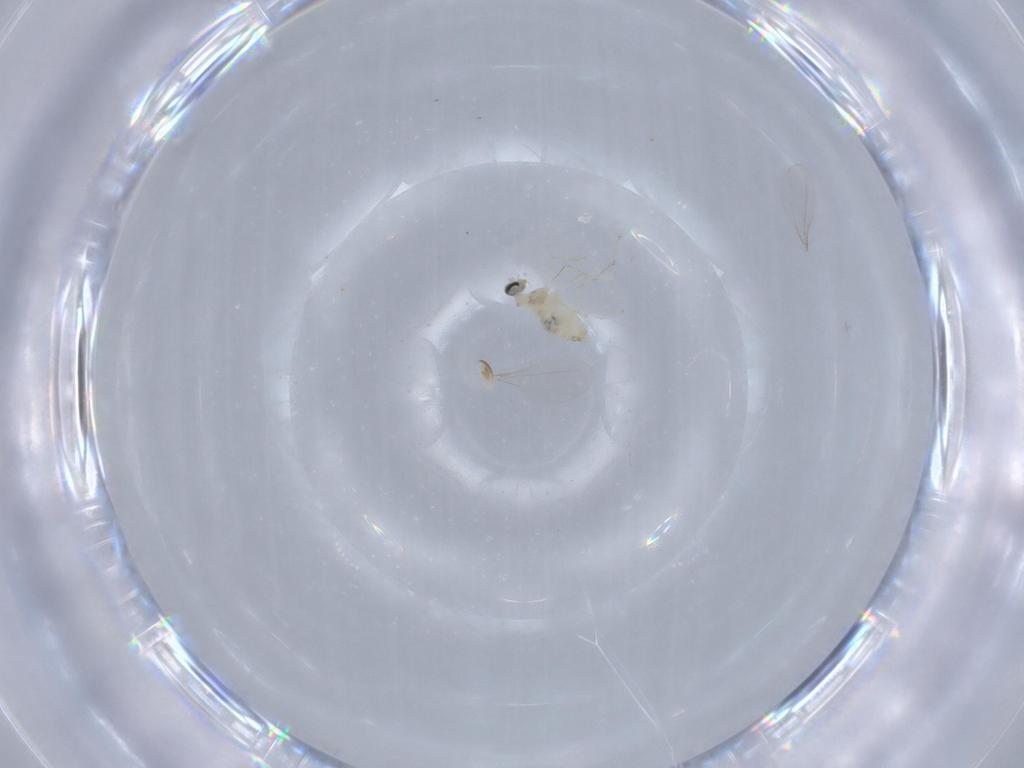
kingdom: Animalia
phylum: Arthropoda
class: Insecta
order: Diptera
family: Cecidomyiidae
